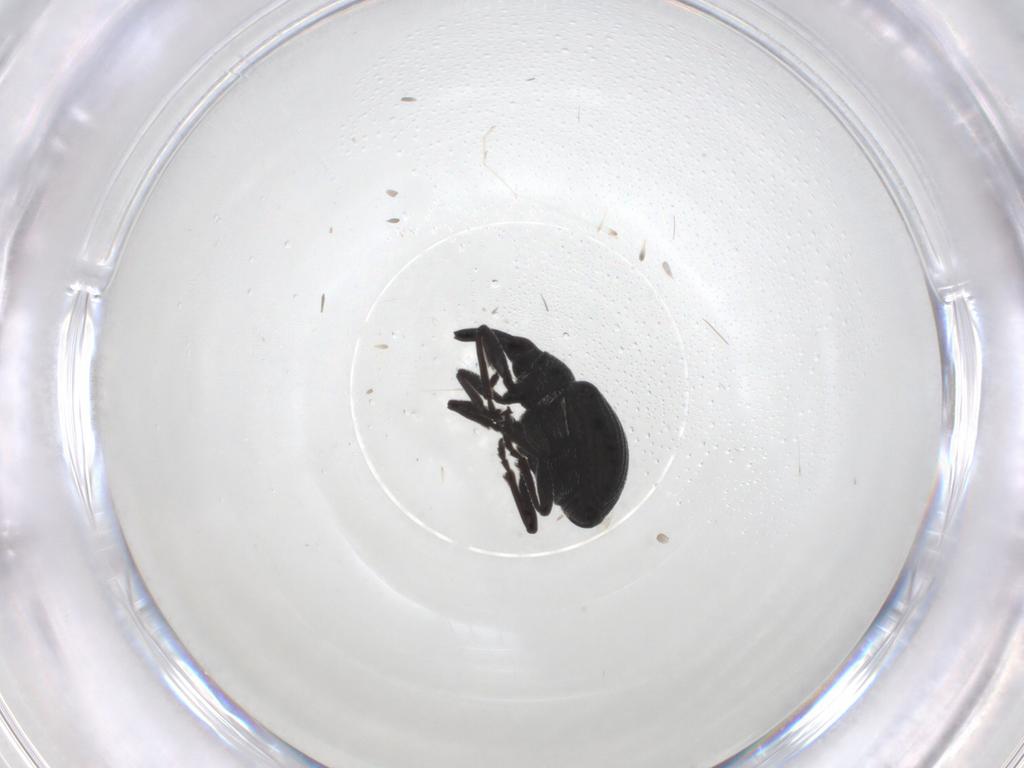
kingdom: Animalia
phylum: Arthropoda
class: Insecta
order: Coleoptera
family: Brentidae
